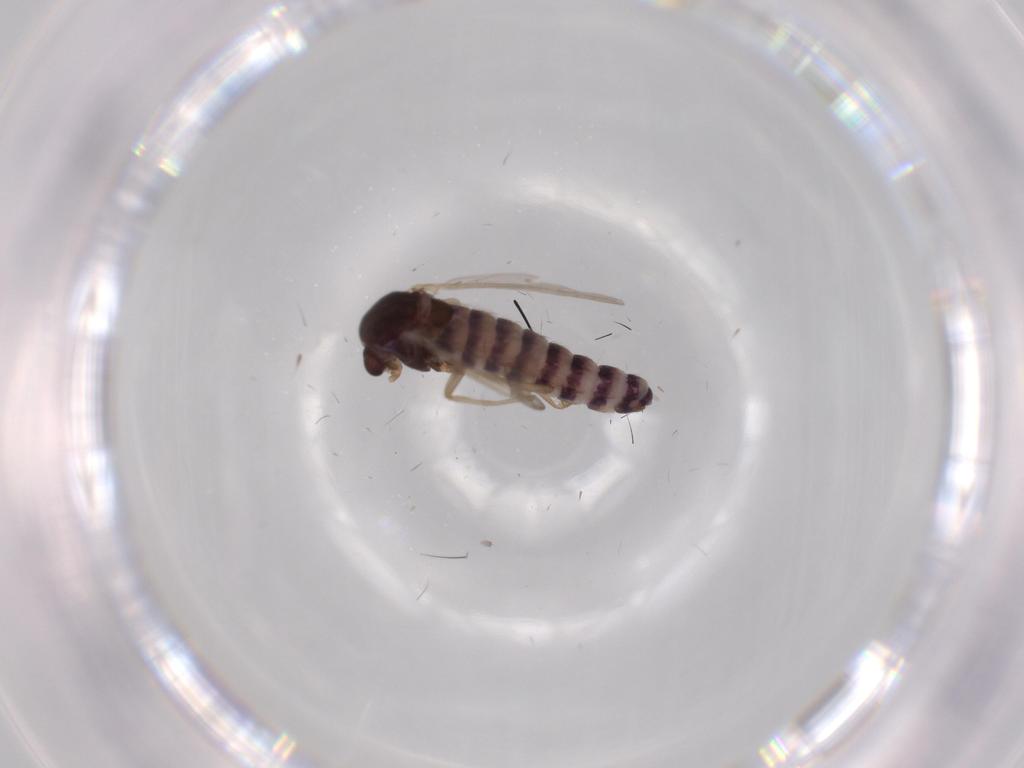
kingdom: Animalia
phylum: Arthropoda
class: Insecta
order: Diptera
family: Chironomidae
